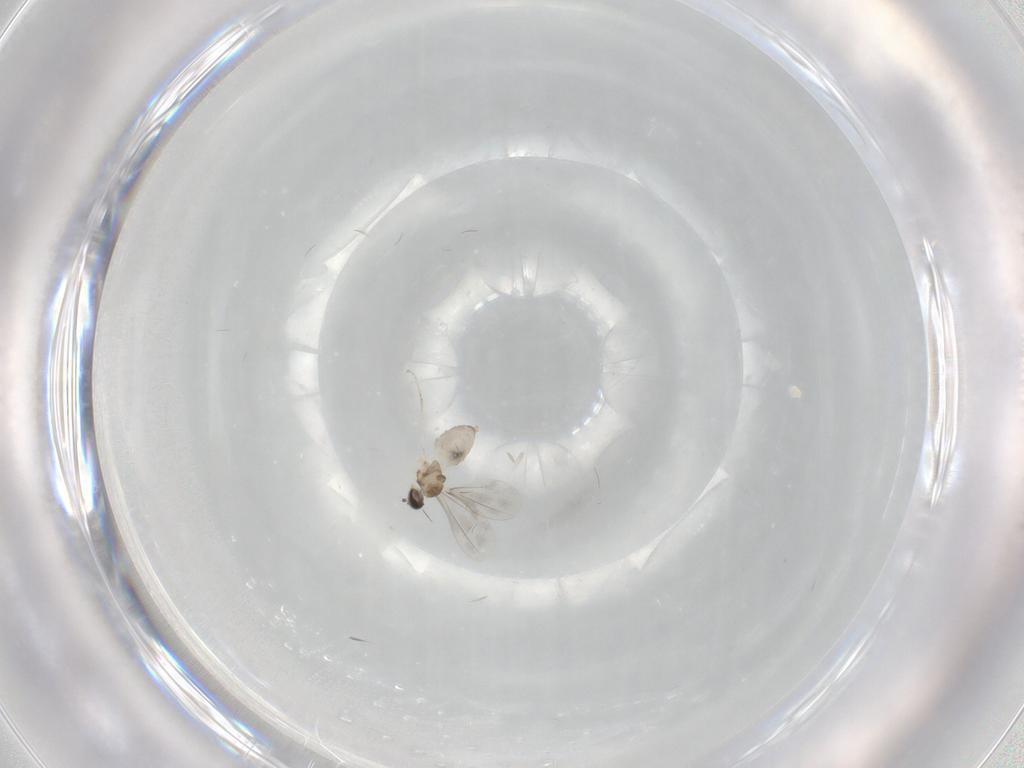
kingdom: Animalia
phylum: Arthropoda
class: Insecta
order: Diptera
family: Cecidomyiidae
